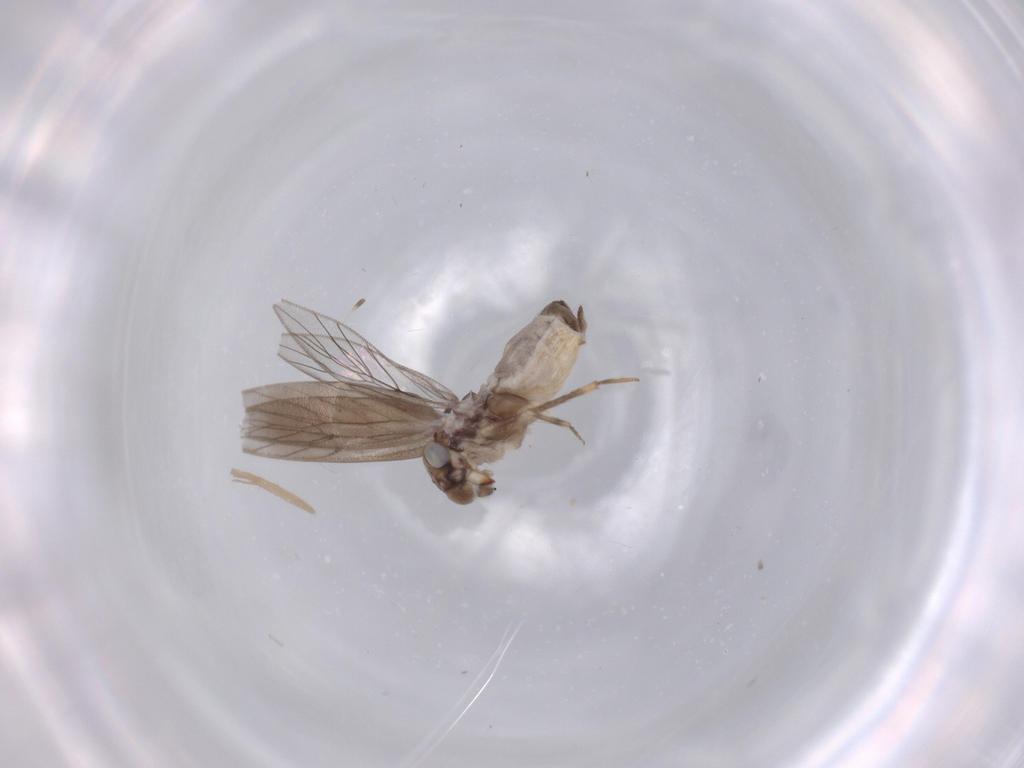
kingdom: Animalia
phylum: Arthropoda
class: Insecta
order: Psocodea
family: Lepidopsocidae
